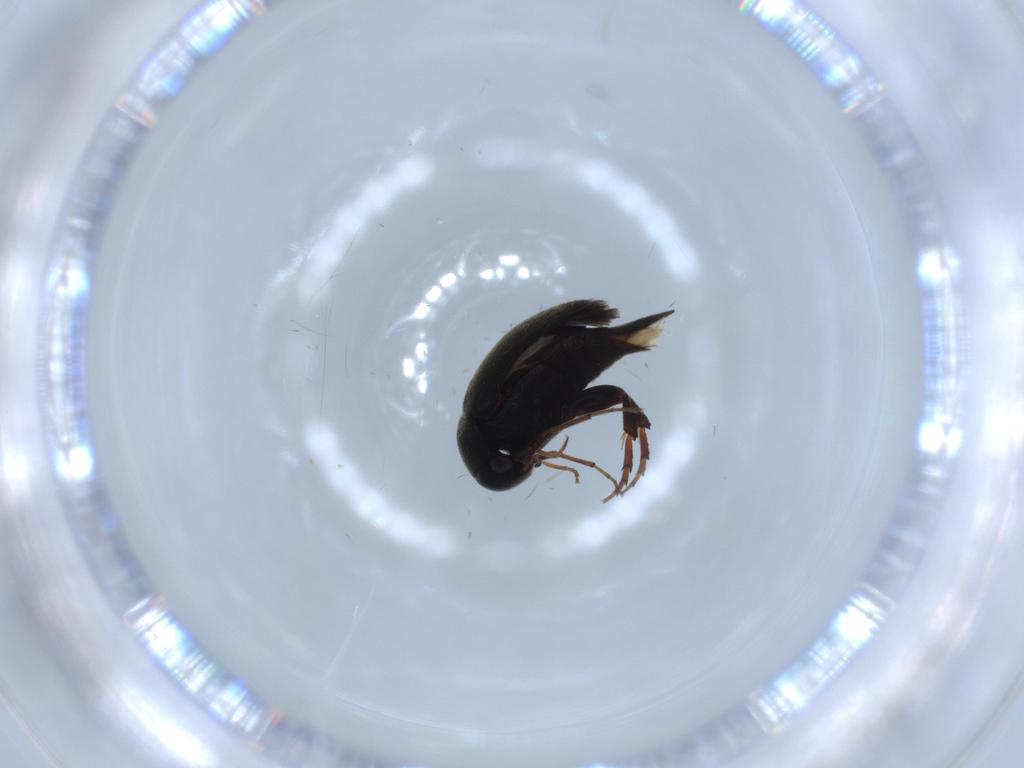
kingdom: Animalia
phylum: Arthropoda
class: Insecta
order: Coleoptera
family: Mordellidae
